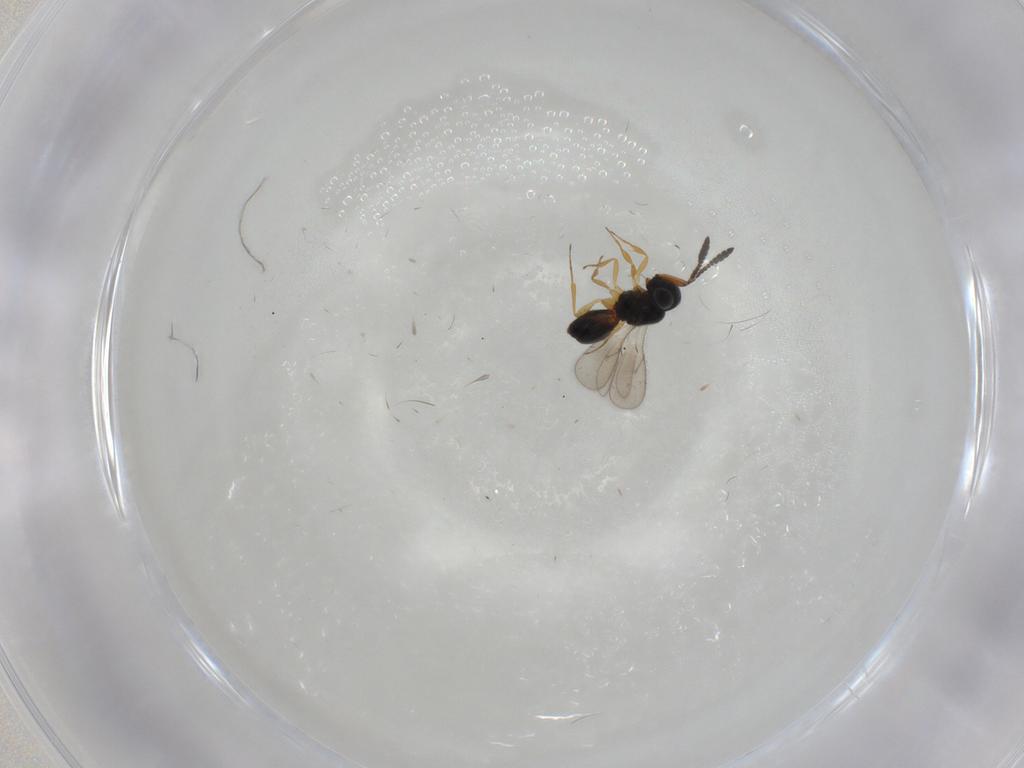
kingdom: Animalia
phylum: Arthropoda
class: Insecta
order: Hymenoptera
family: Scelionidae
